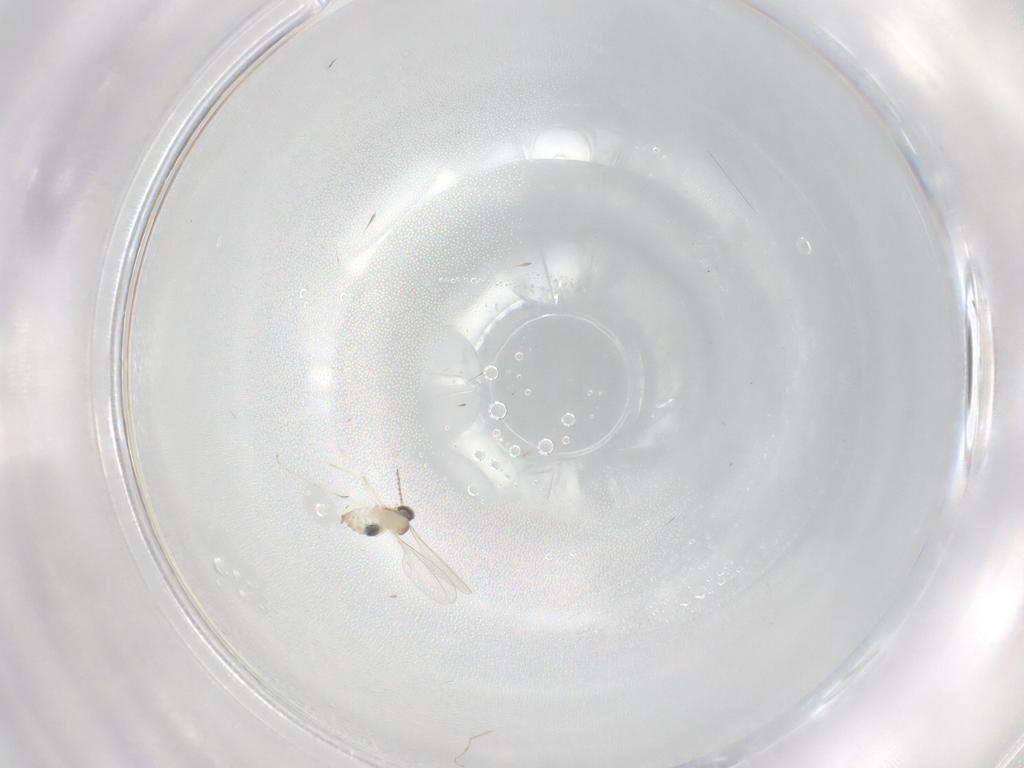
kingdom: Animalia
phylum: Arthropoda
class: Insecta
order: Diptera
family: Cecidomyiidae
